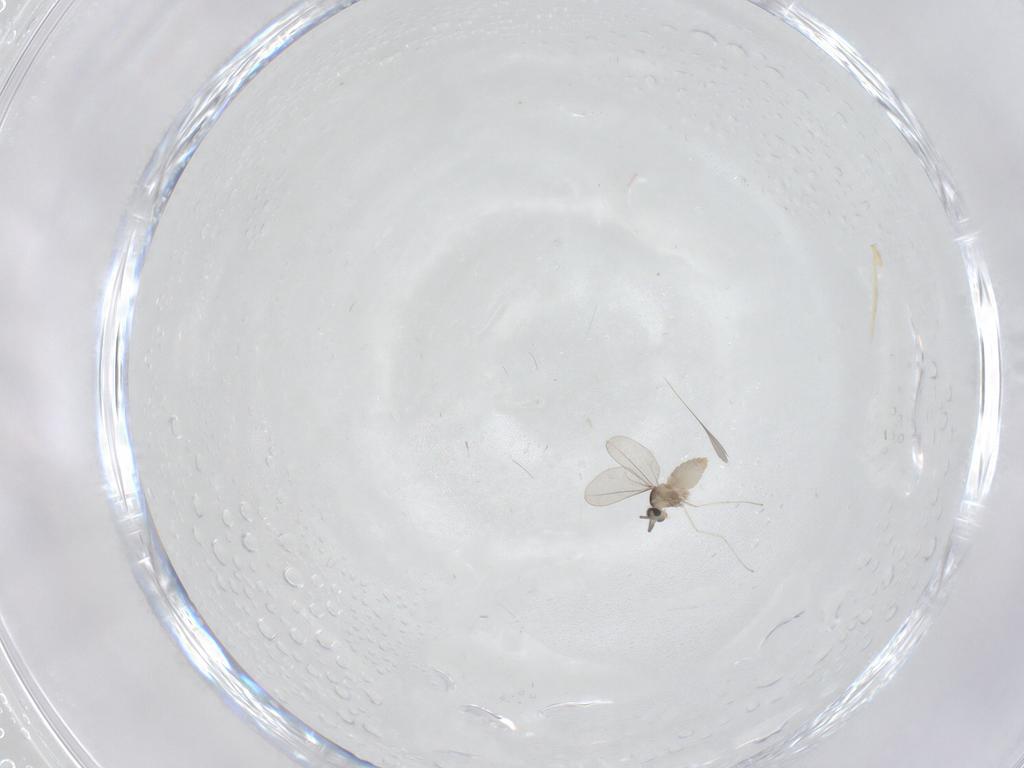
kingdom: Animalia
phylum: Arthropoda
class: Insecta
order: Diptera
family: Cecidomyiidae
